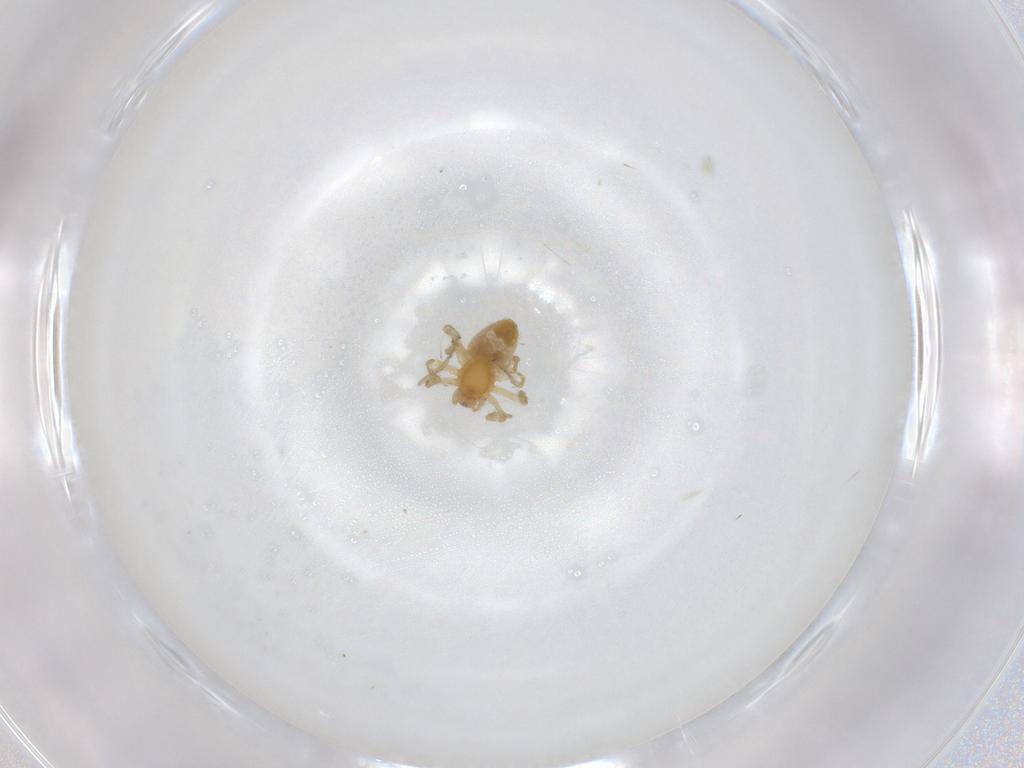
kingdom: Animalia
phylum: Arthropoda
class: Arachnida
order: Araneae
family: Dictynidae
